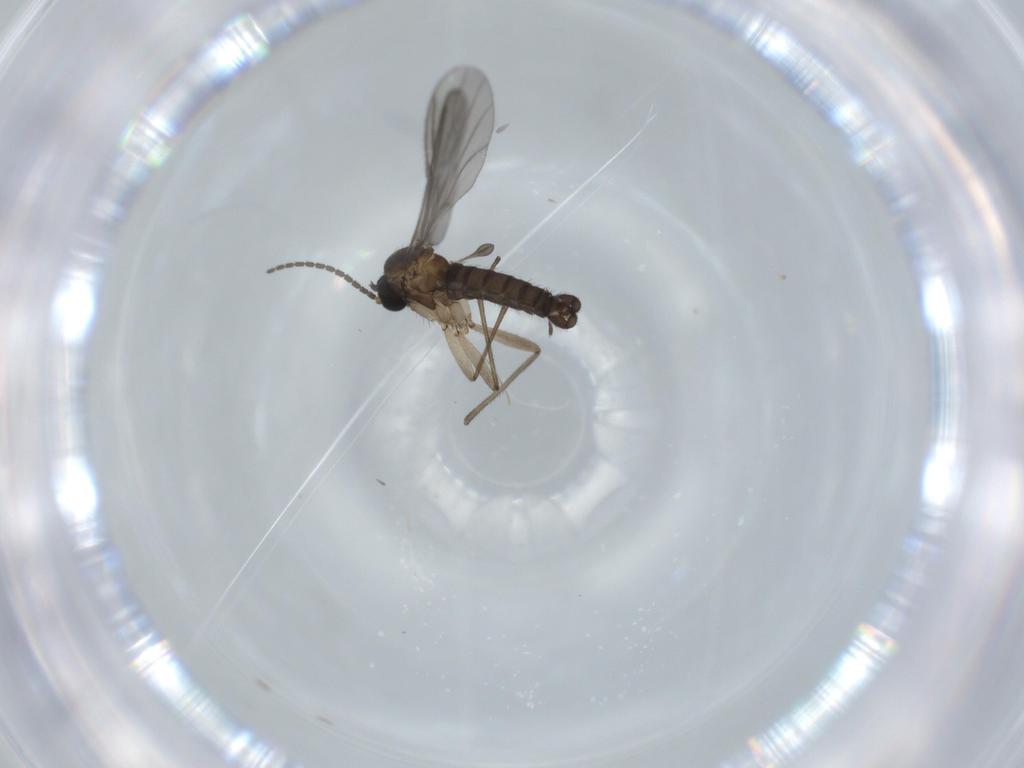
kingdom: Animalia
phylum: Arthropoda
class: Insecta
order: Diptera
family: Sciaridae
